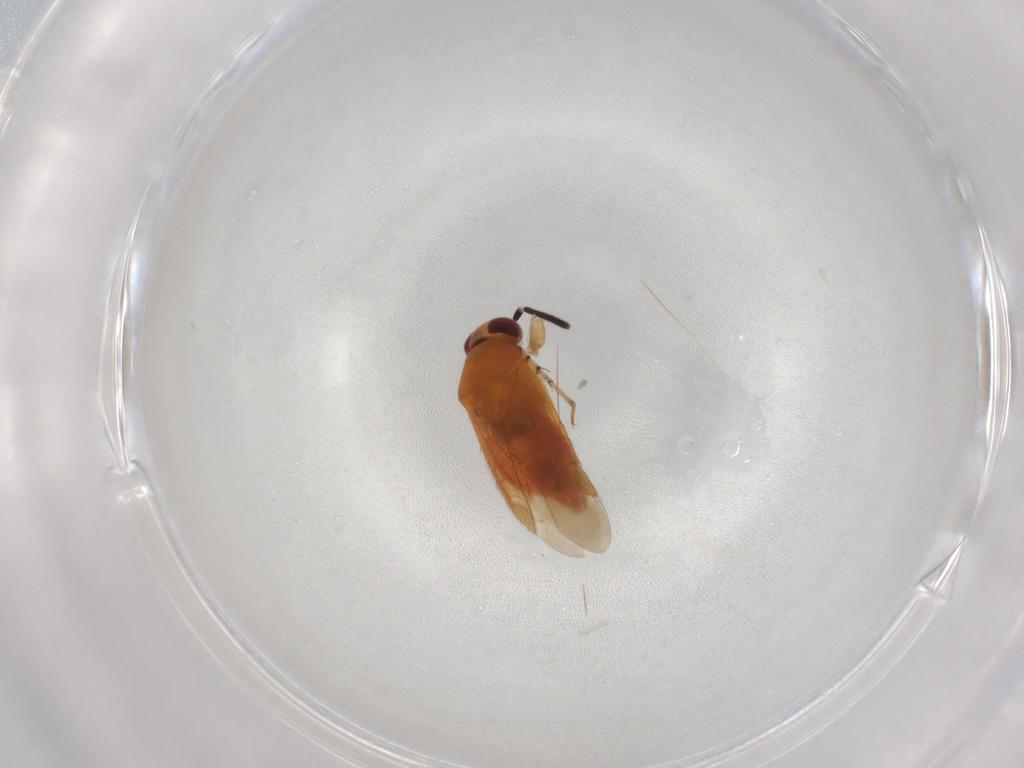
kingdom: Animalia
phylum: Arthropoda
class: Insecta
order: Hemiptera
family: Miridae
